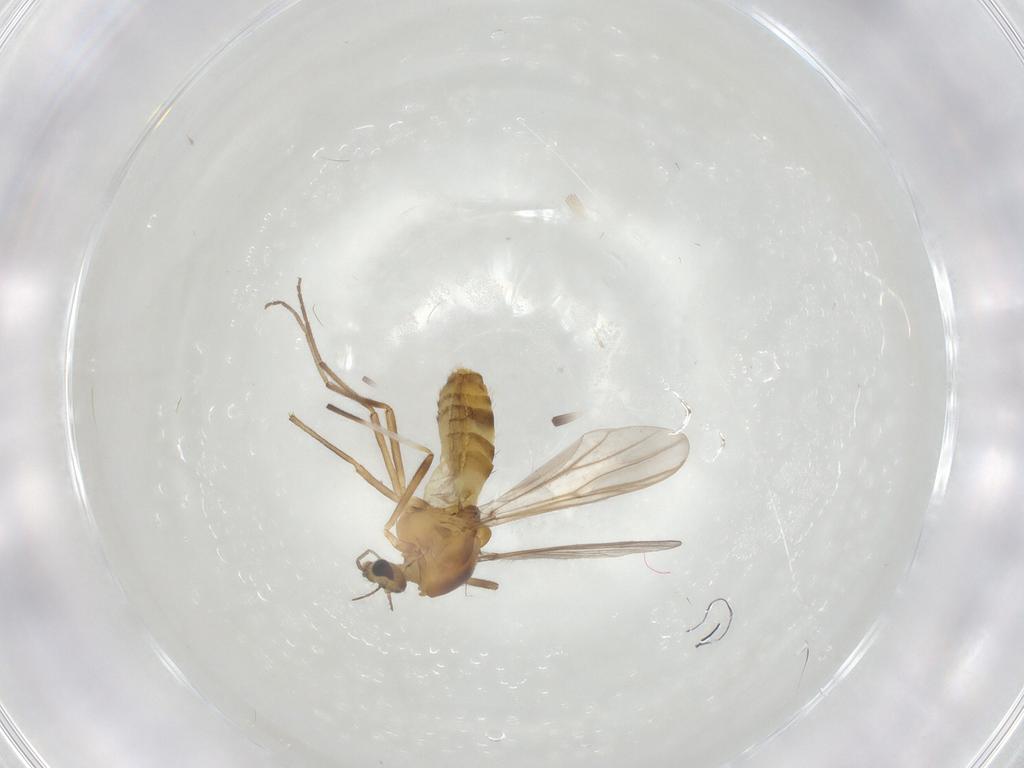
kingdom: Animalia
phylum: Arthropoda
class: Insecta
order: Diptera
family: Chironomidae
